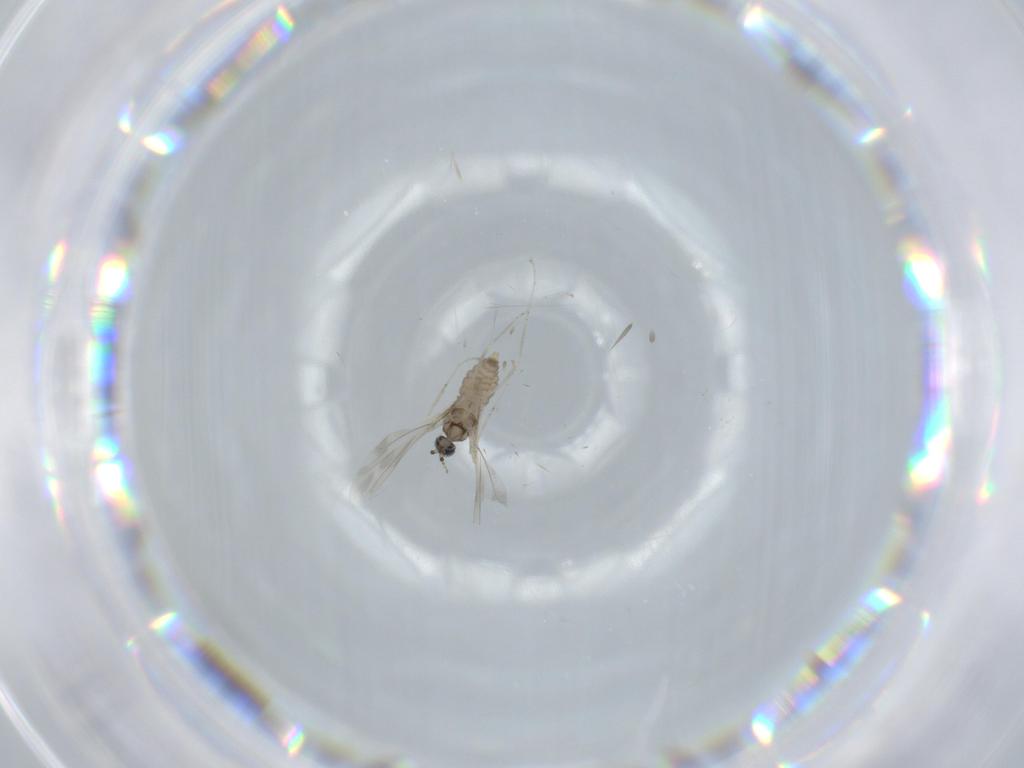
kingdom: Animalia
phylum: Arthropoda
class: Insecta
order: Diptera
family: Cecidomyiidae
